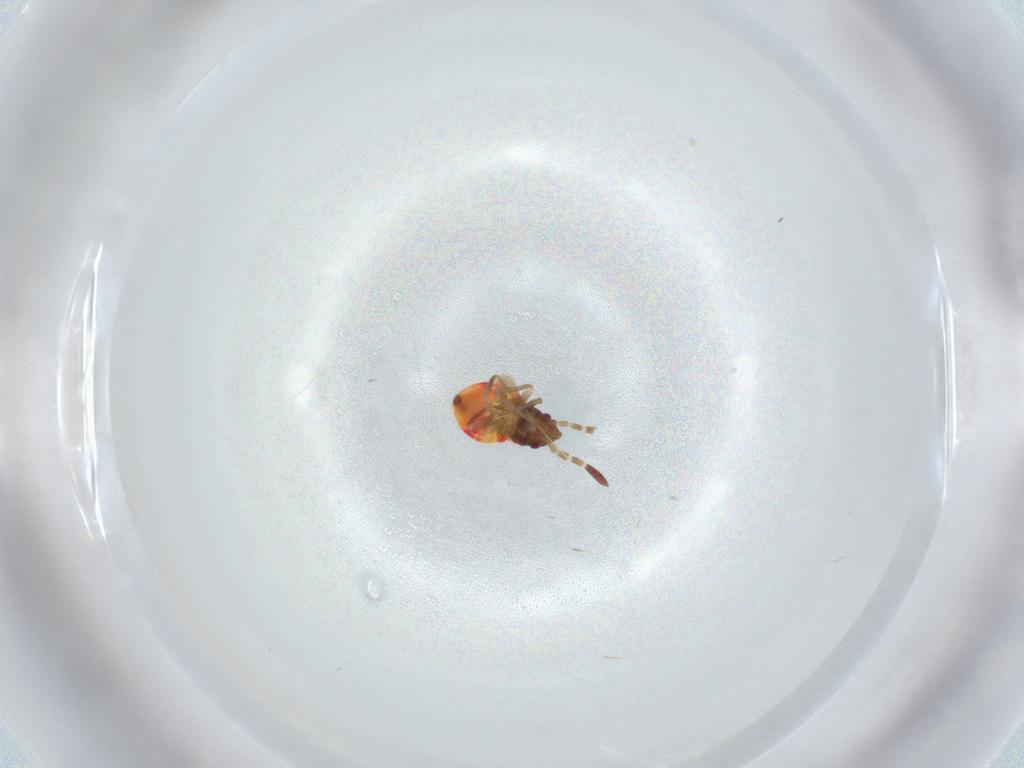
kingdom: Animalia
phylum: Arthropoda
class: Insecta
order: Hemiptera
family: Rhyparochromidae
